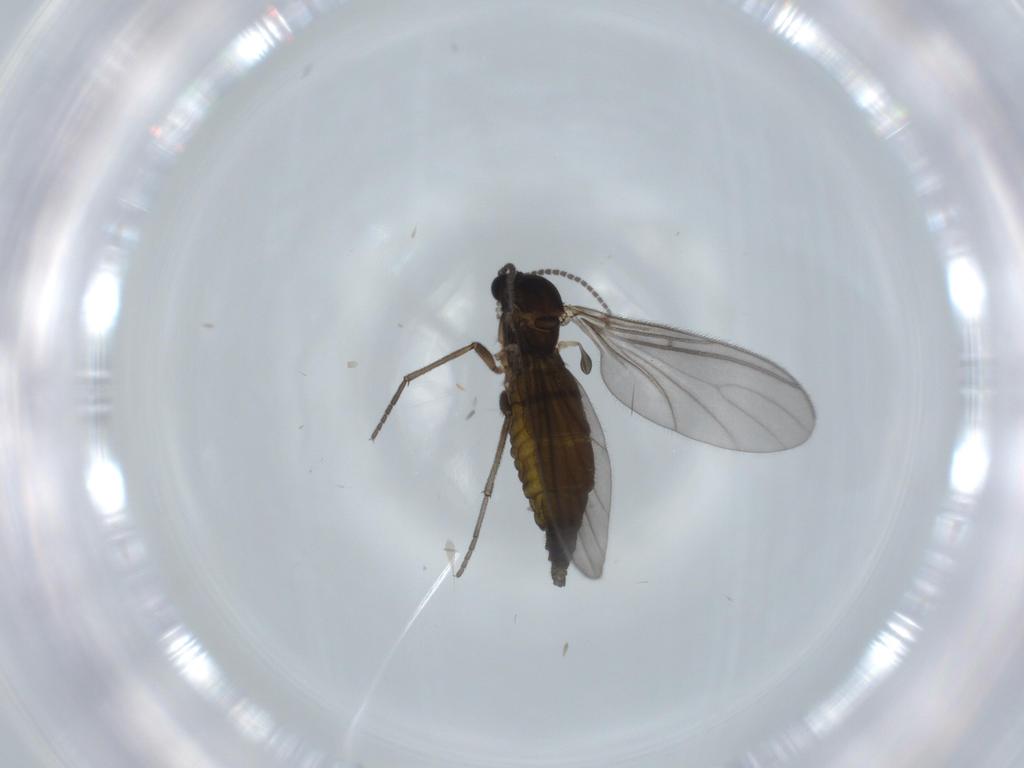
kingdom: Animalia
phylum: Arthropoda
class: Insecta
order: Diptera
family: Sciaridae
